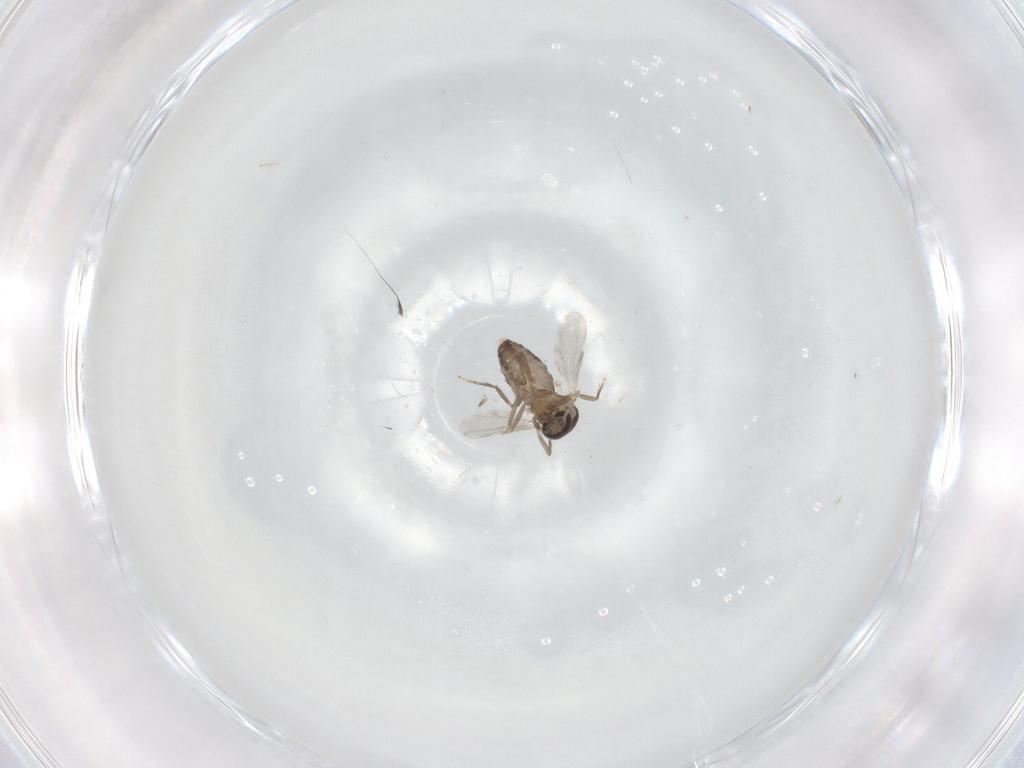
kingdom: Animalia
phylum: Arthropoda
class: Insecta
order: Diptera
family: Ceratopogonidae
